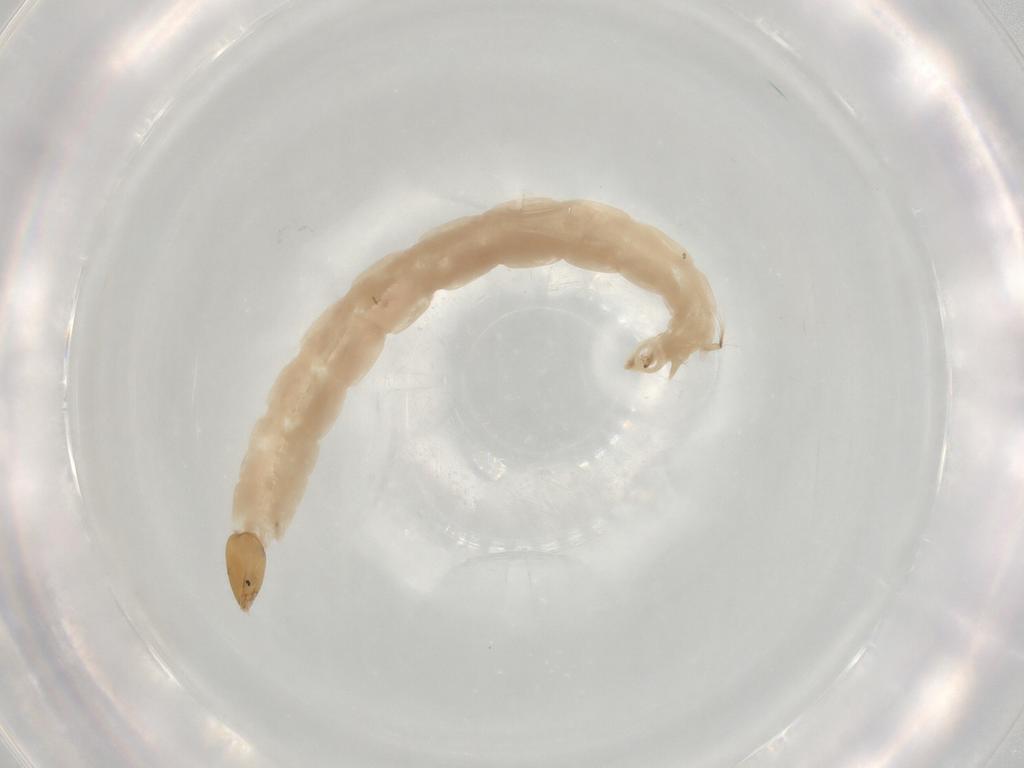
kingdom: Animalia
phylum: Arthropoda
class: Insecta
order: Diptera
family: Chironomidae
